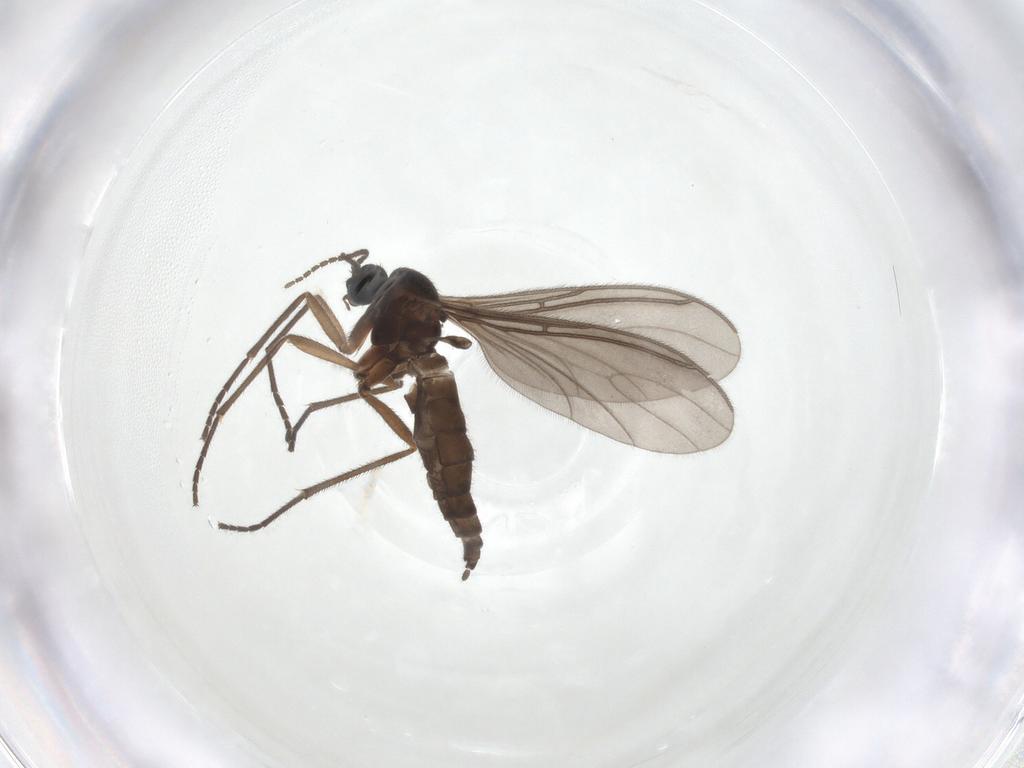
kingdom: Animalia
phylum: Arthropoda
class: Insecta
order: Diptera
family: Sciaridae
